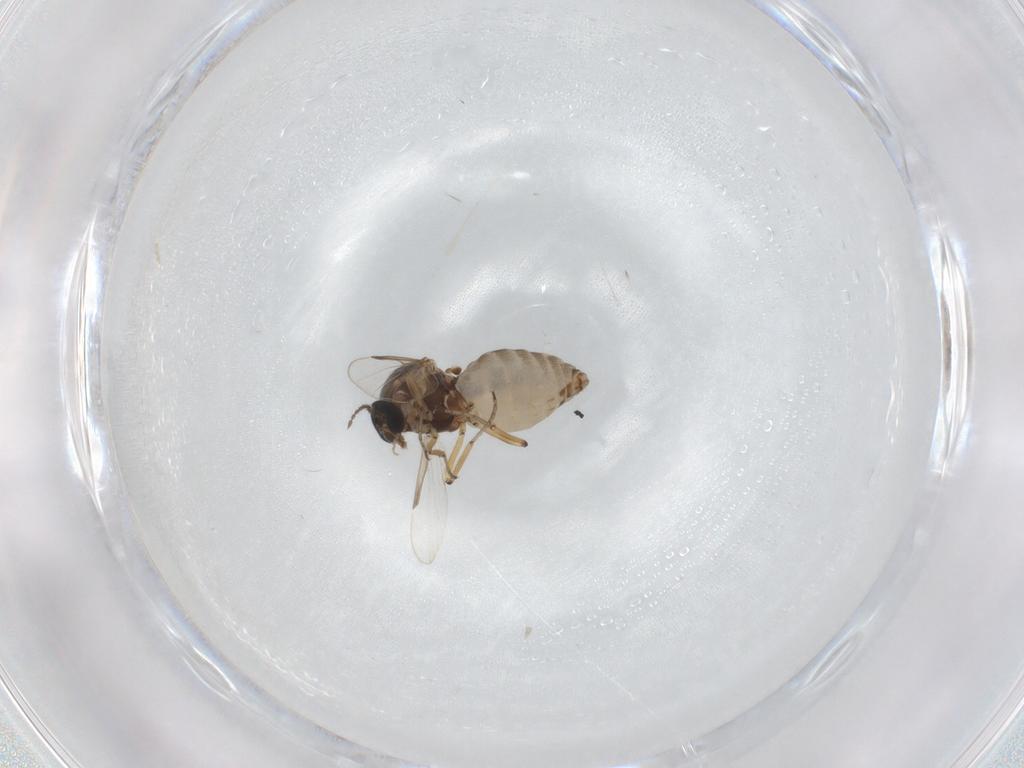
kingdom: Animalia
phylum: Arthropoda
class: Insecta
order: Diptera
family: Ceratopogonidae
